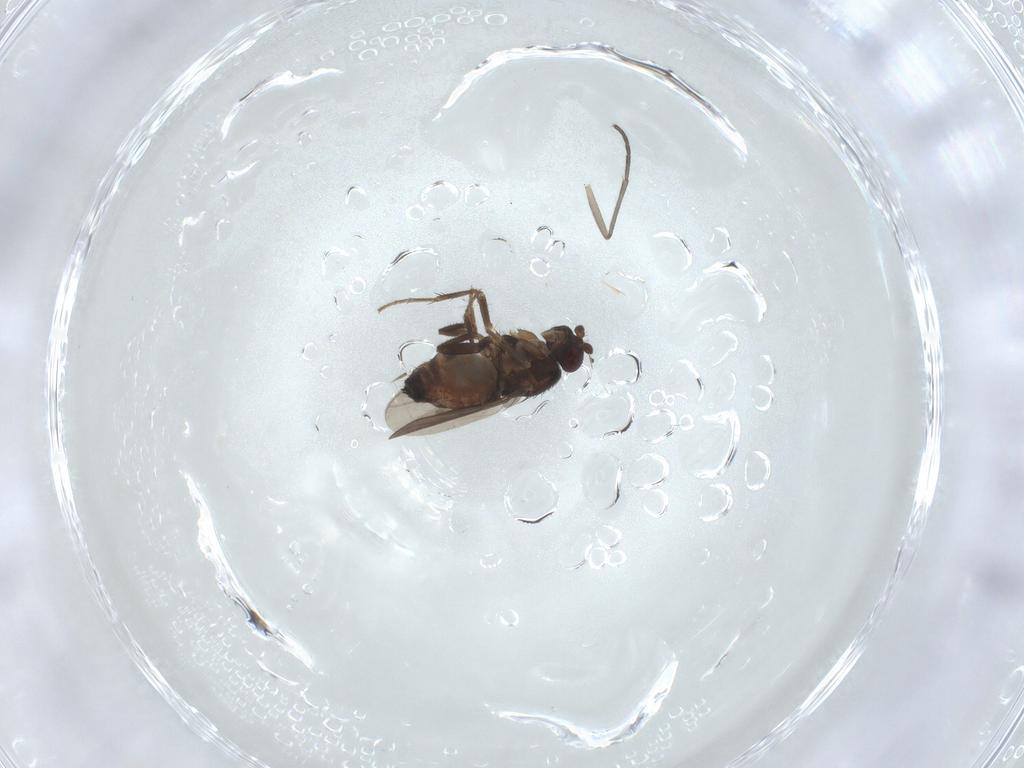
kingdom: Animalia
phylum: Arthropoda
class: Insecta
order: Diptera
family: Sphaeroceridae
